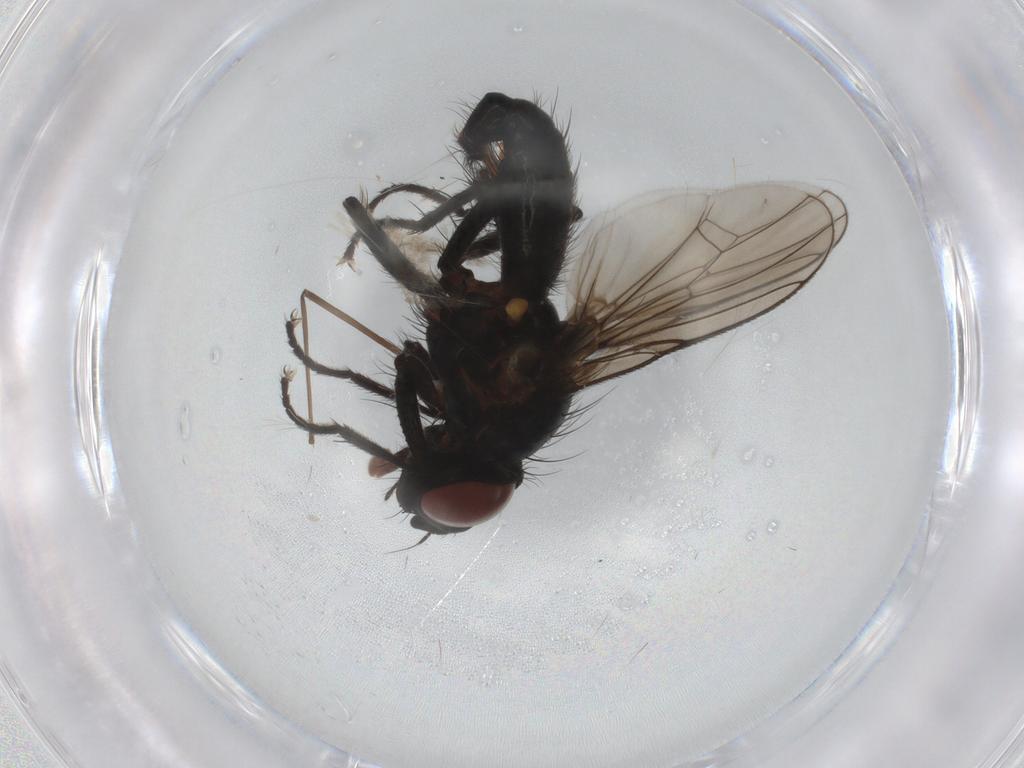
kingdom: Animalia
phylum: Arthropoda
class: Insecta
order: Diptera
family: Chironomidae
